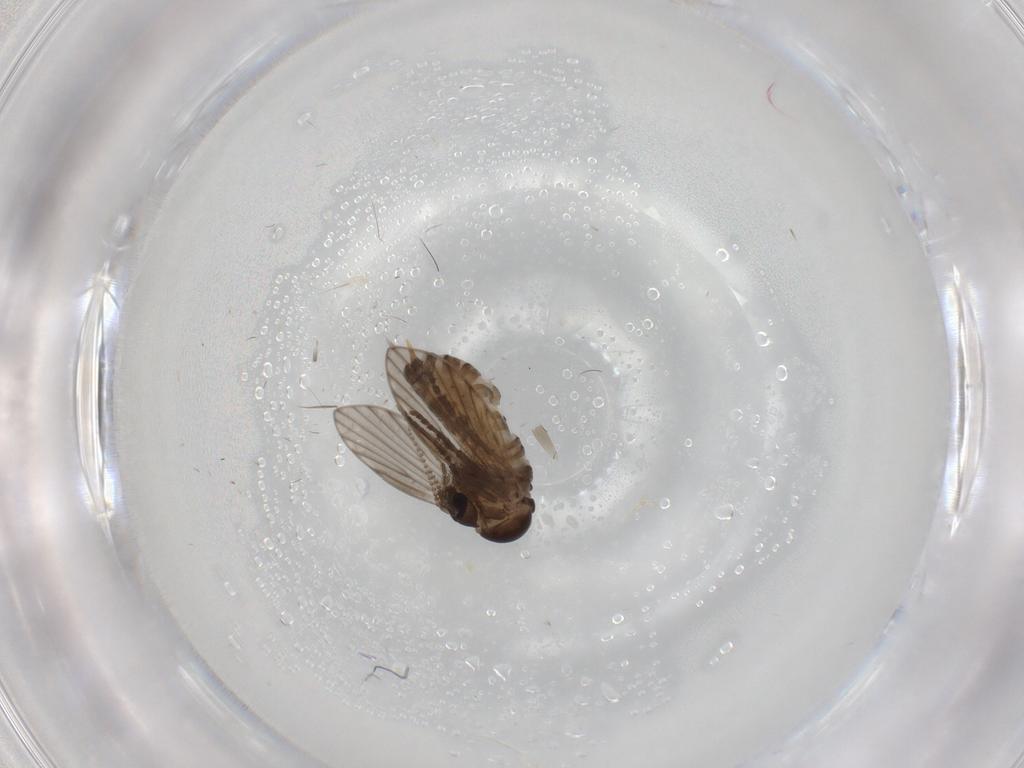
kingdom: Animalia
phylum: Arthropoda
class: Insecta
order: Diptera
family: Psychodidae
